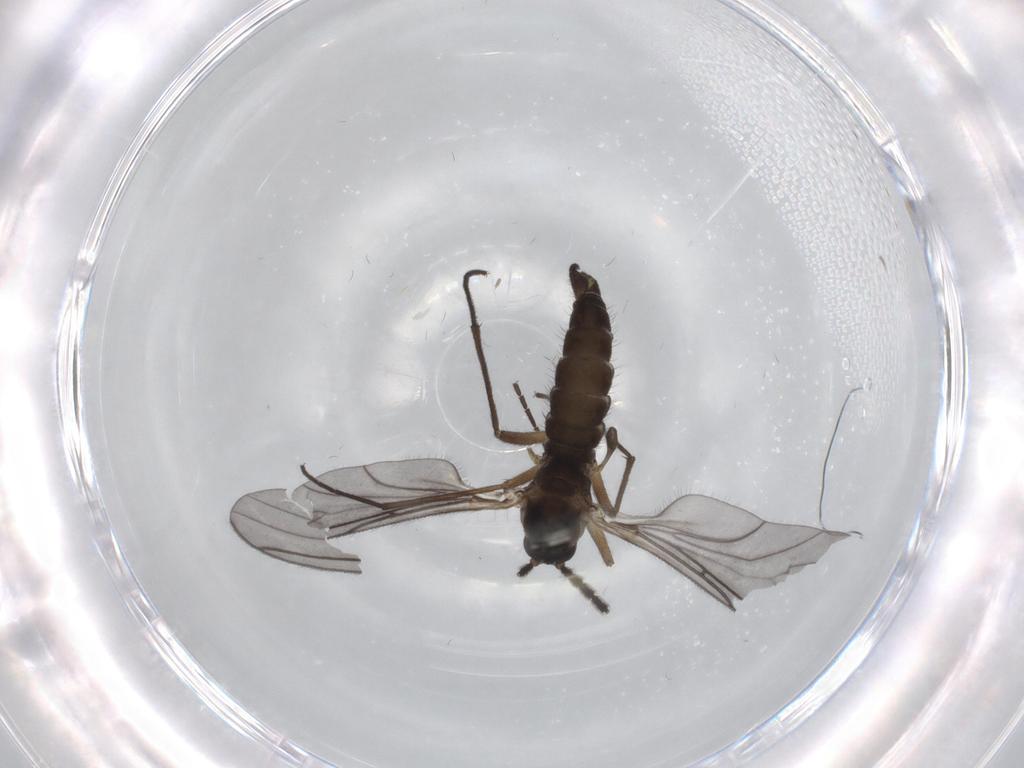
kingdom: Animalia
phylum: Arthropoda
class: Insecta
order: Diptera
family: Sciaridae
